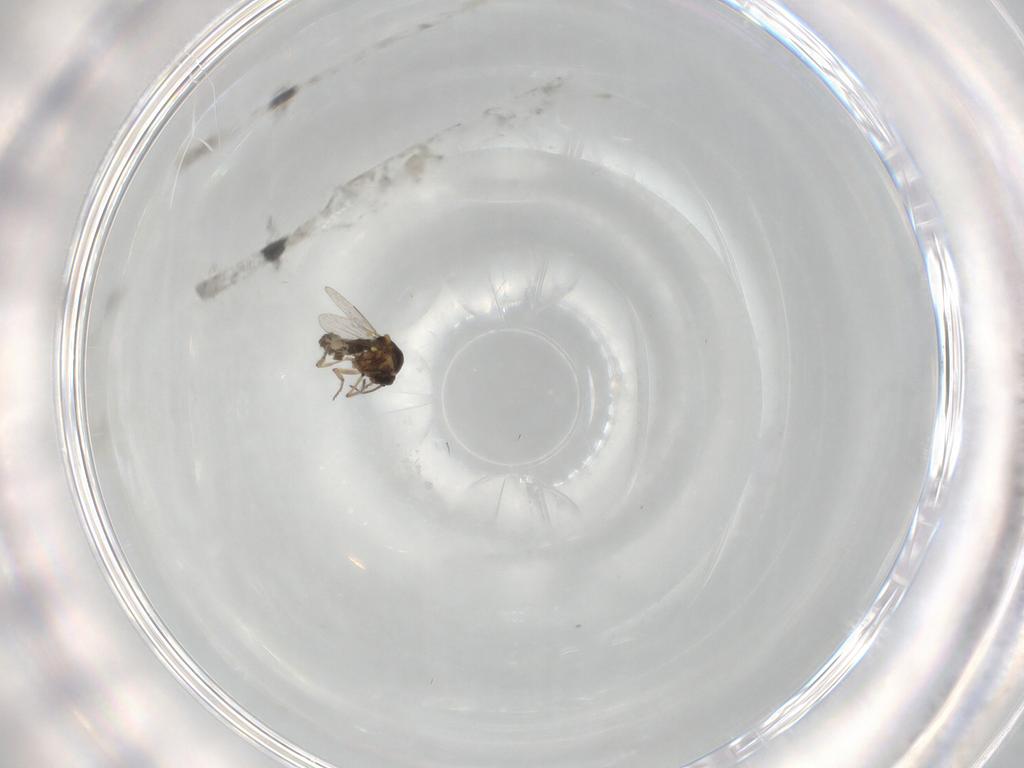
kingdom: Animalia
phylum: Arthropoda
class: Insecta
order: Diptera
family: Ceratopogonidae
